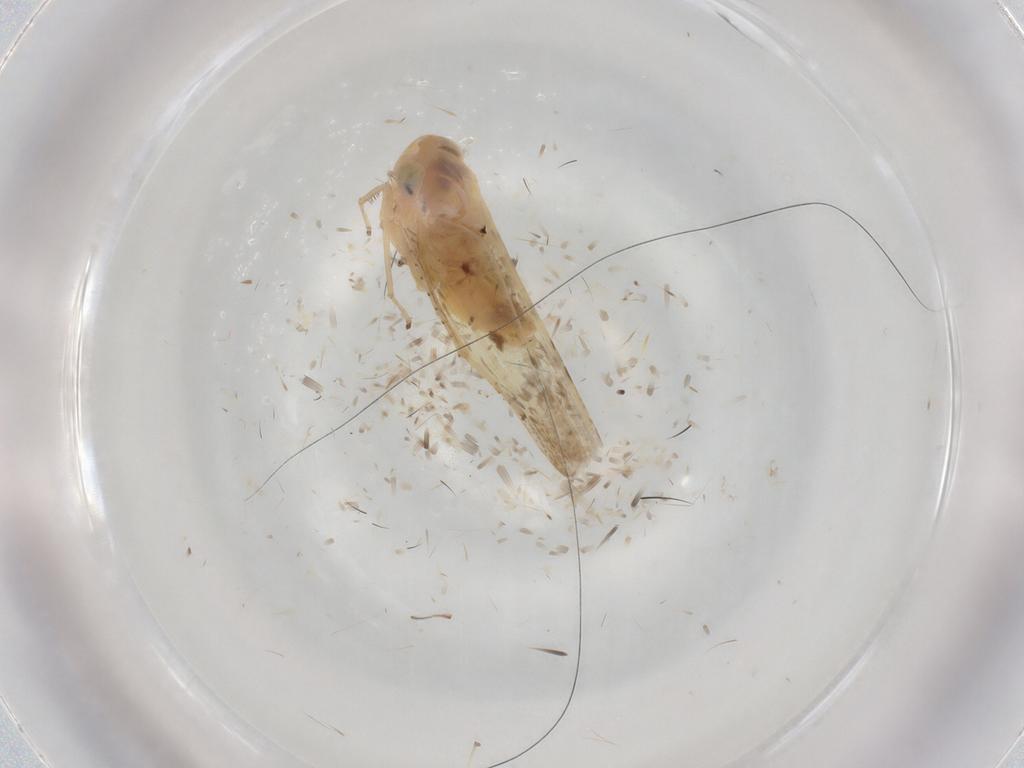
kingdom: Animalia
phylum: Arthropoda
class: Insecta
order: Hemiptera
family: Cicadellidae
